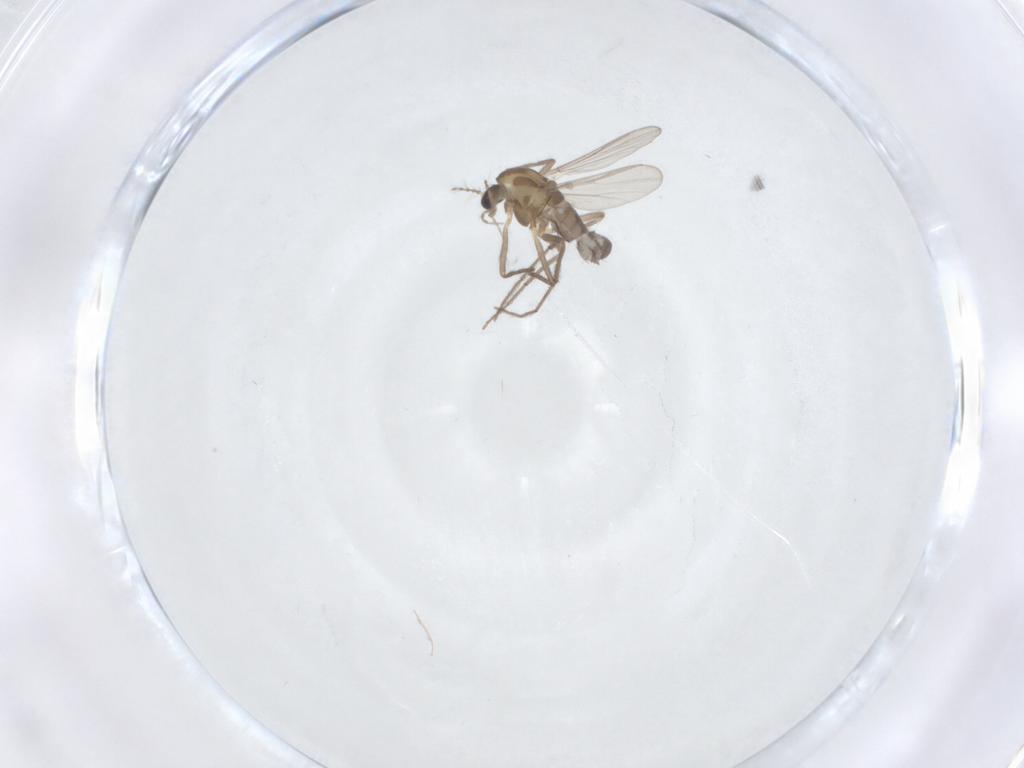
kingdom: Animalia
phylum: Arthropoda
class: Insecta
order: Diptera
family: Chironomidae
